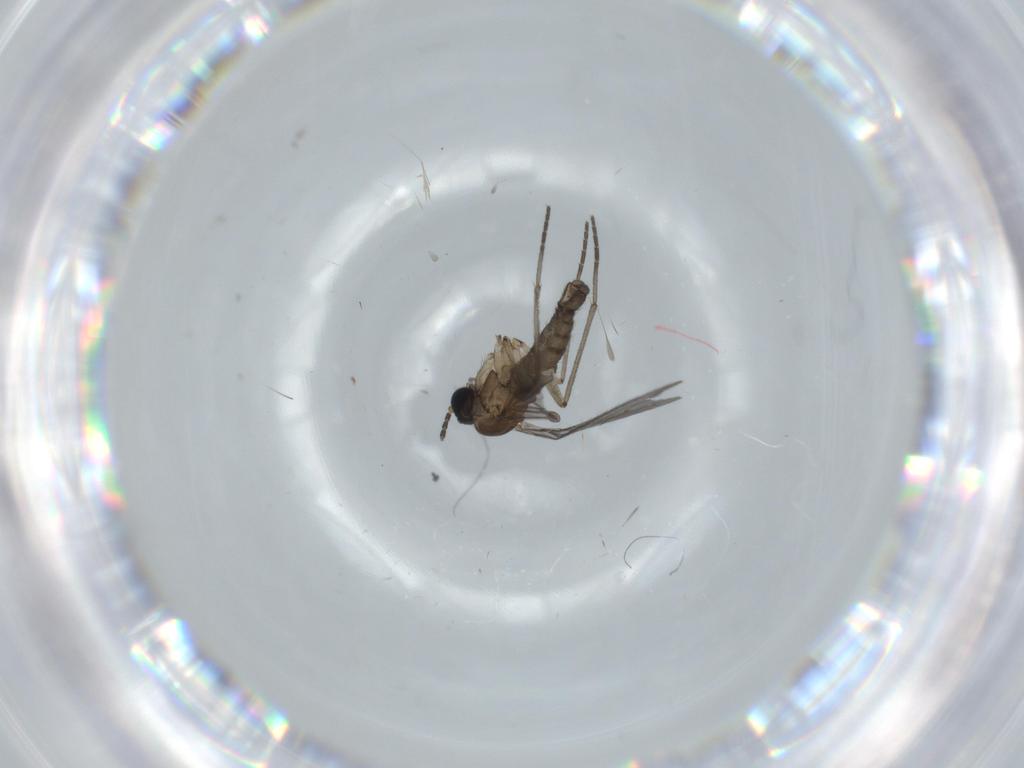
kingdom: Animalia
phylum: Arthropoda
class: Insecta
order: Diptera
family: Sciaridae
